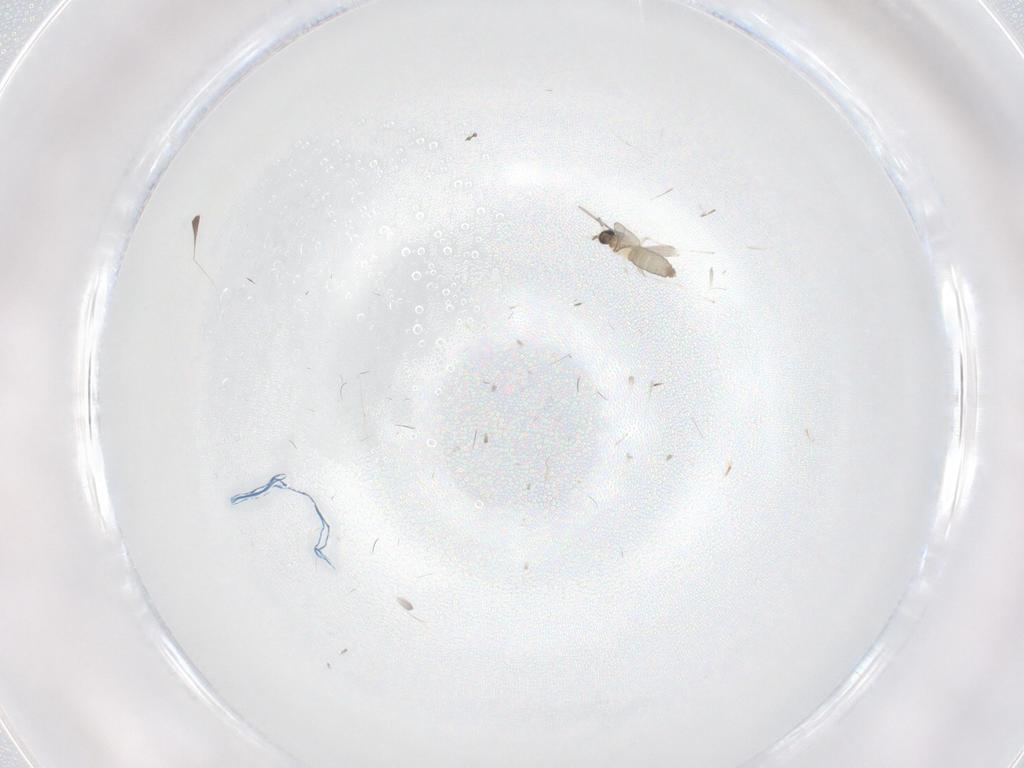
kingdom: Animalia
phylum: Arthropoda
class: Insecta
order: Diptera
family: Cecidomyiidae
